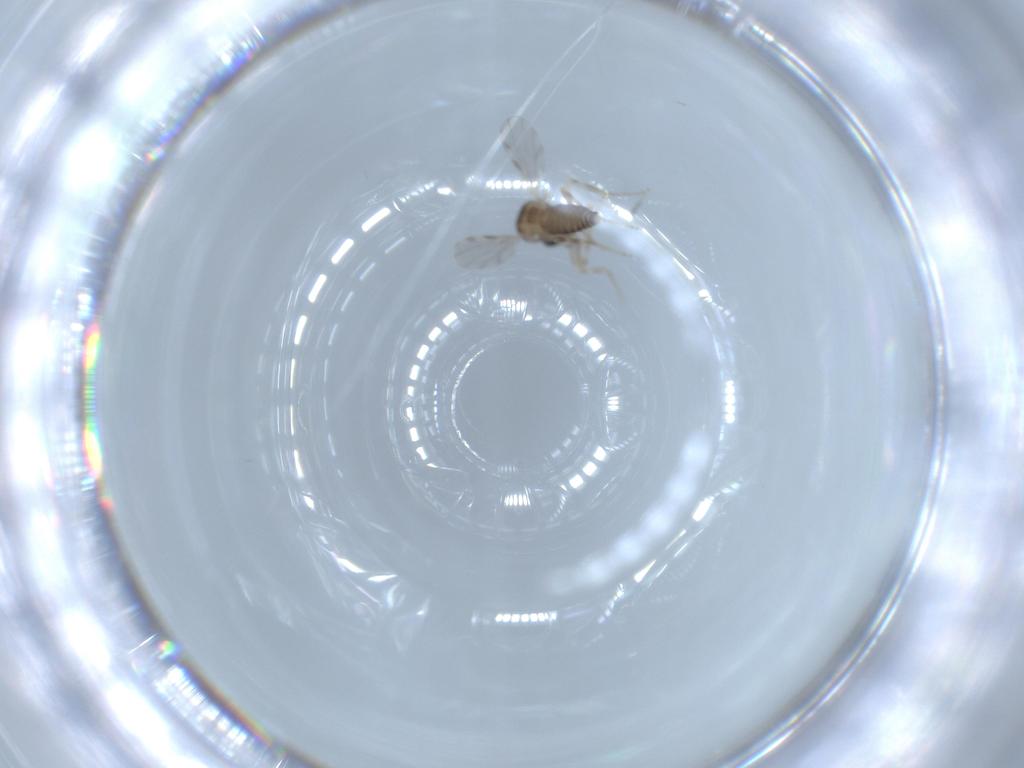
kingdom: Animalia
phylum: Arthropoda
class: Insecta
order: Diptera
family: Ceratopogonidae
